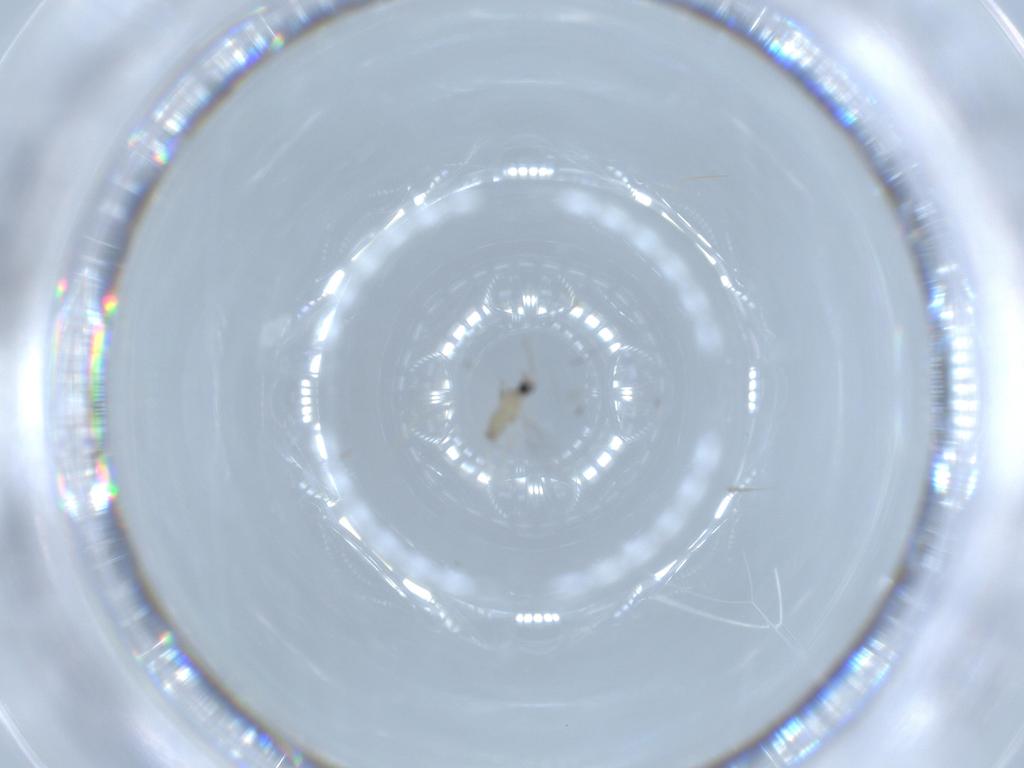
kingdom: Animalia
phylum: Arthropoda
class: Insecta
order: Diptera
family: Cecidomyiidae
